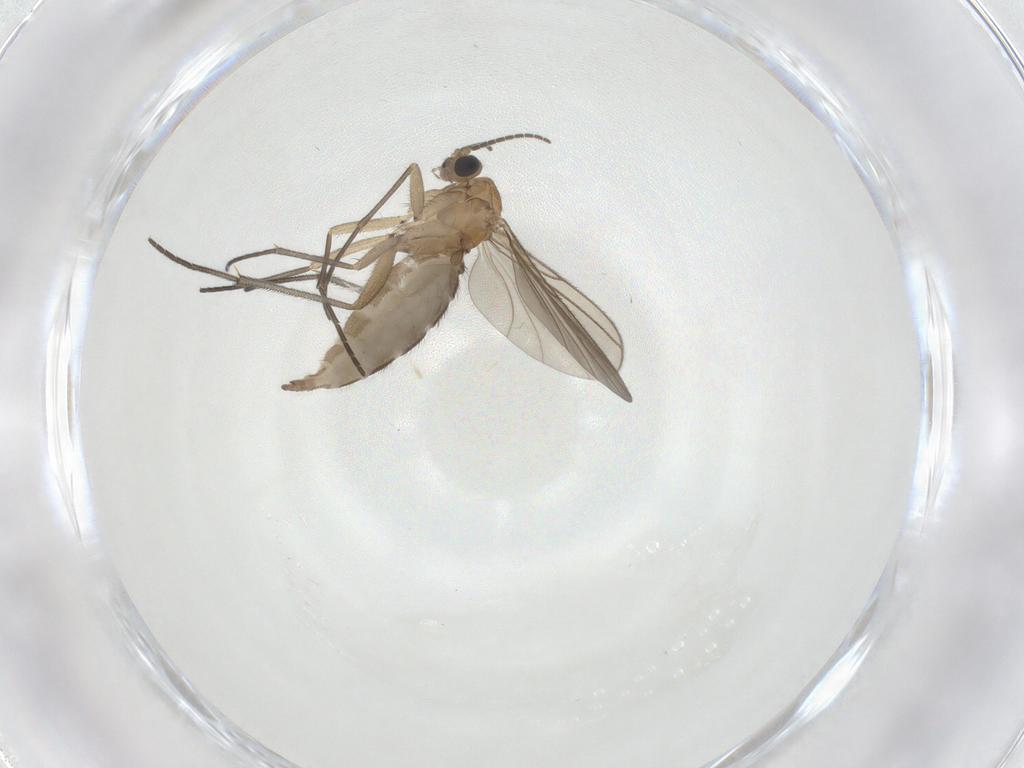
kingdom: Animalia
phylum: Arthropoda
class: Insecta
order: Diptera
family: Sciaridae
